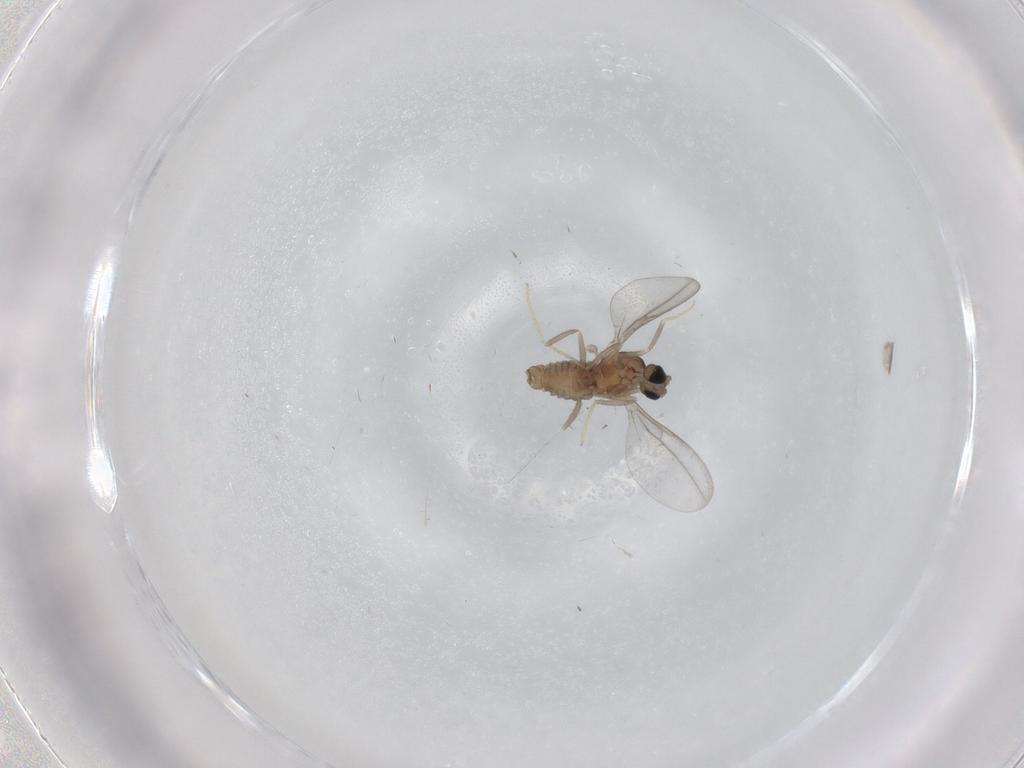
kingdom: Animalia
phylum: Arthropoda
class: Insecta
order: Diptera
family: Cecidomyiidae
